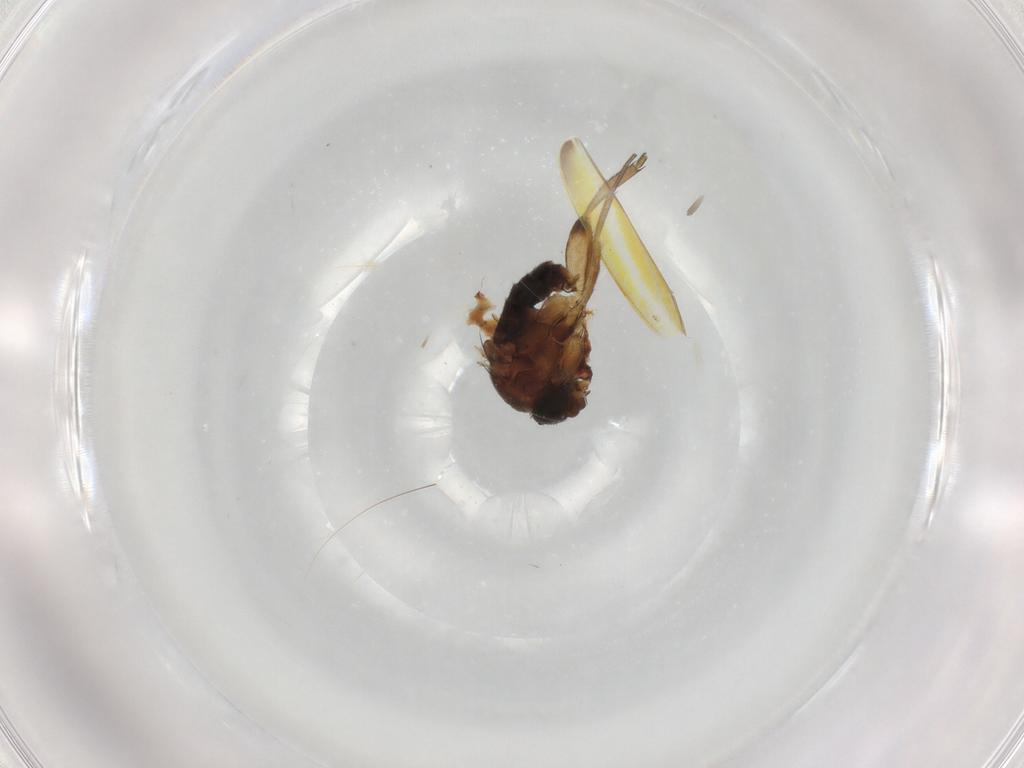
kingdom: Animalia
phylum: Arthropoda
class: Insecta
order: Diptera
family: Phoridae
